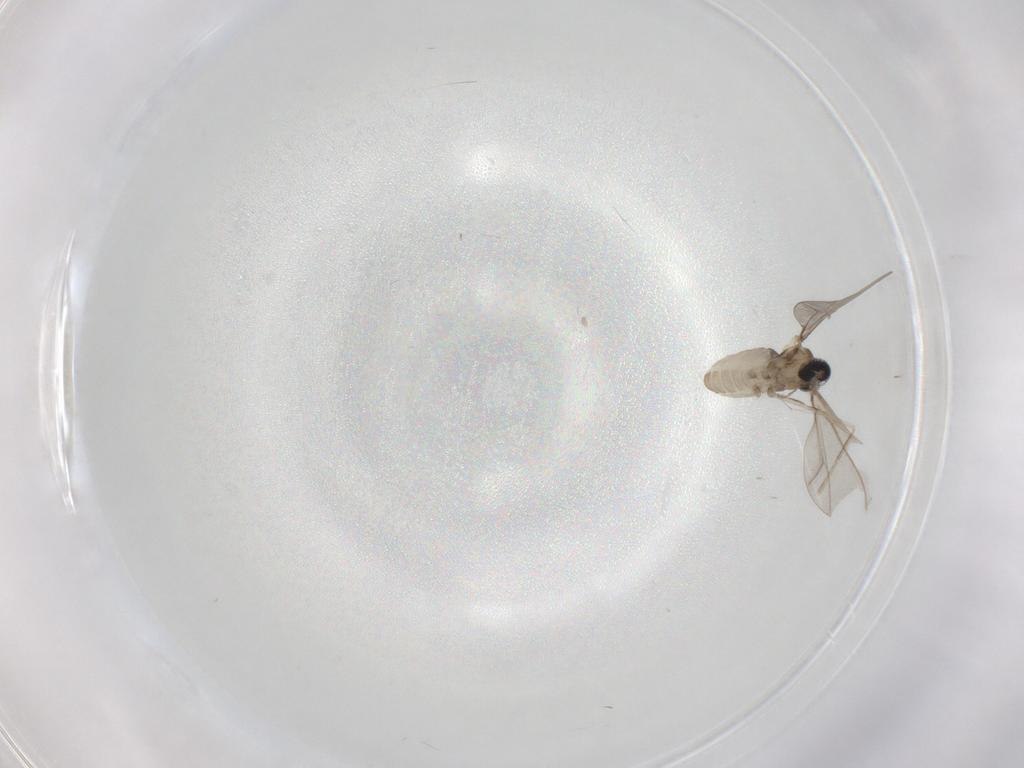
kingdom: Animalia
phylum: Arthropoda
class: Insecta
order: Diptera
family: Cecidomyiidae
